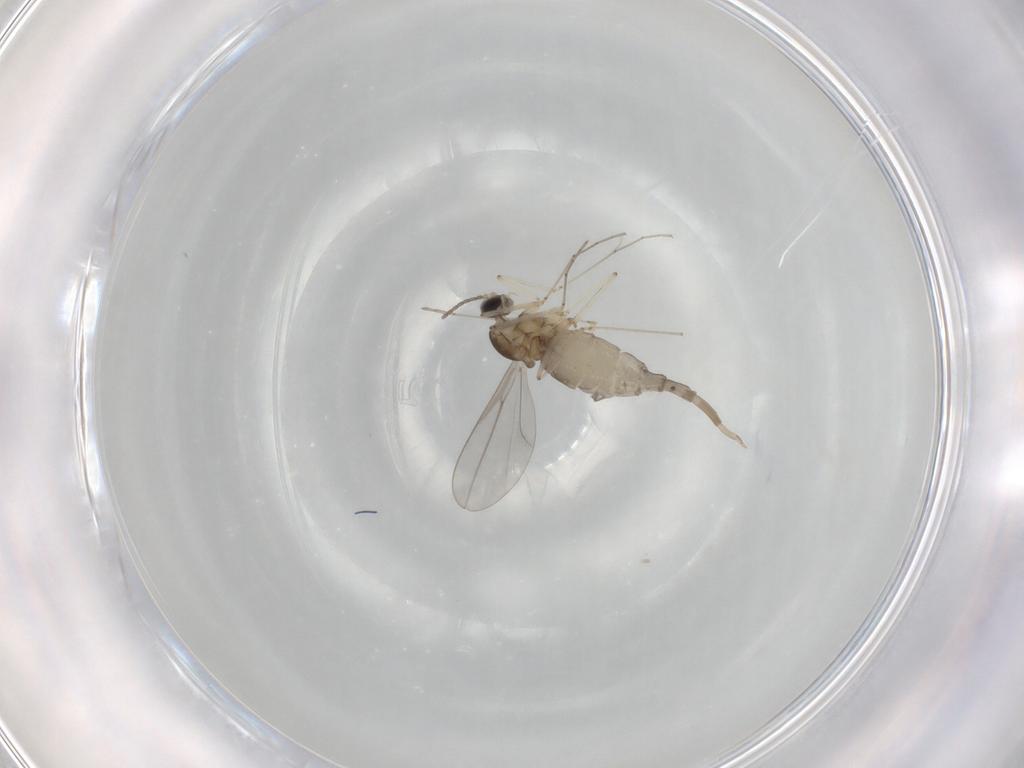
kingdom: Animalia
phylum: Arthropoda
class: Insecta
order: Diptera
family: Cecidomyiidae
